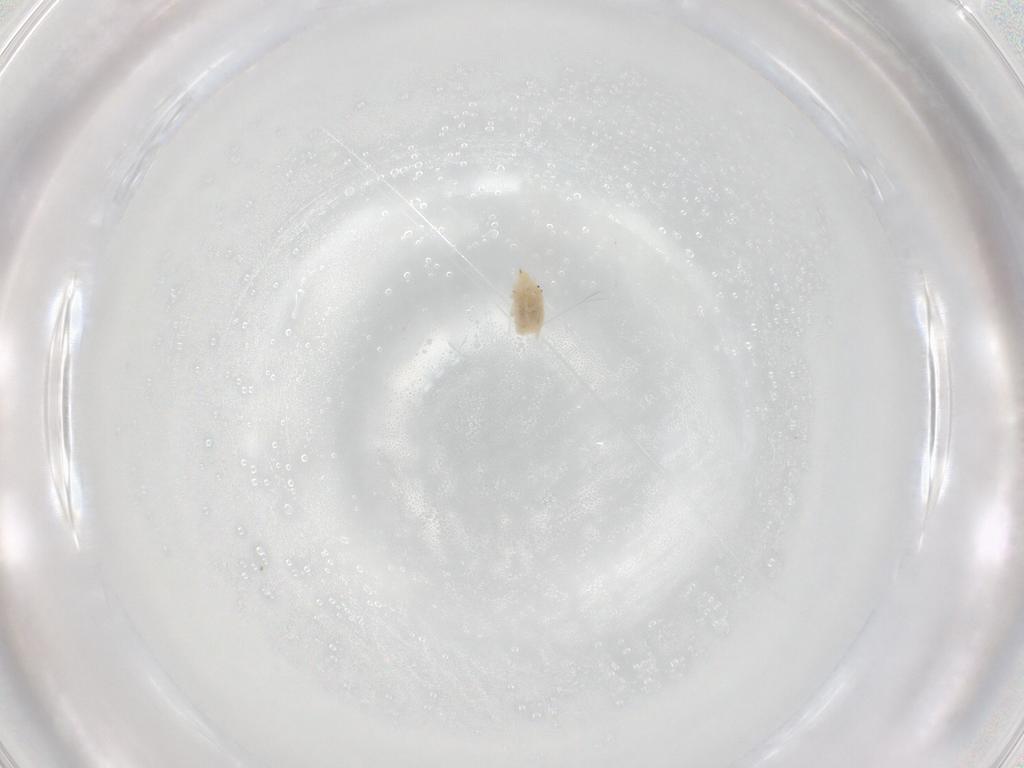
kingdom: Animalia
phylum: Arthropoda
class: Arachnida
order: Trombidiformes
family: Bdellidae
